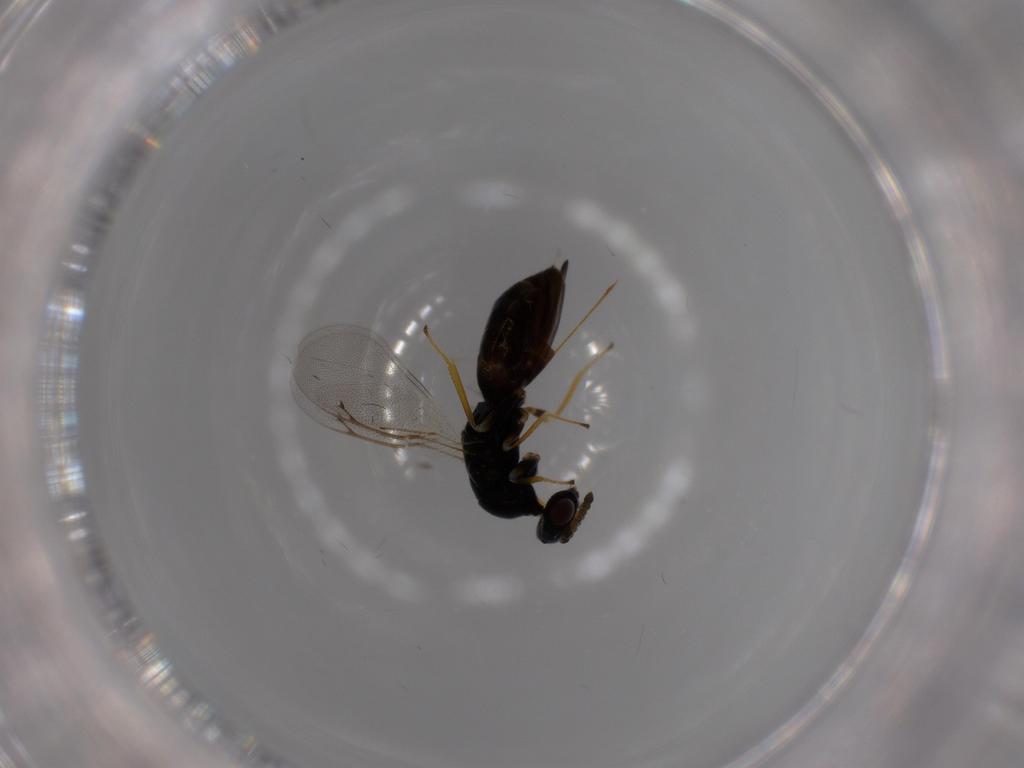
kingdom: Animalia
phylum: Arthropoda
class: Insecta
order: Hymenoptera
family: Eulophidae
